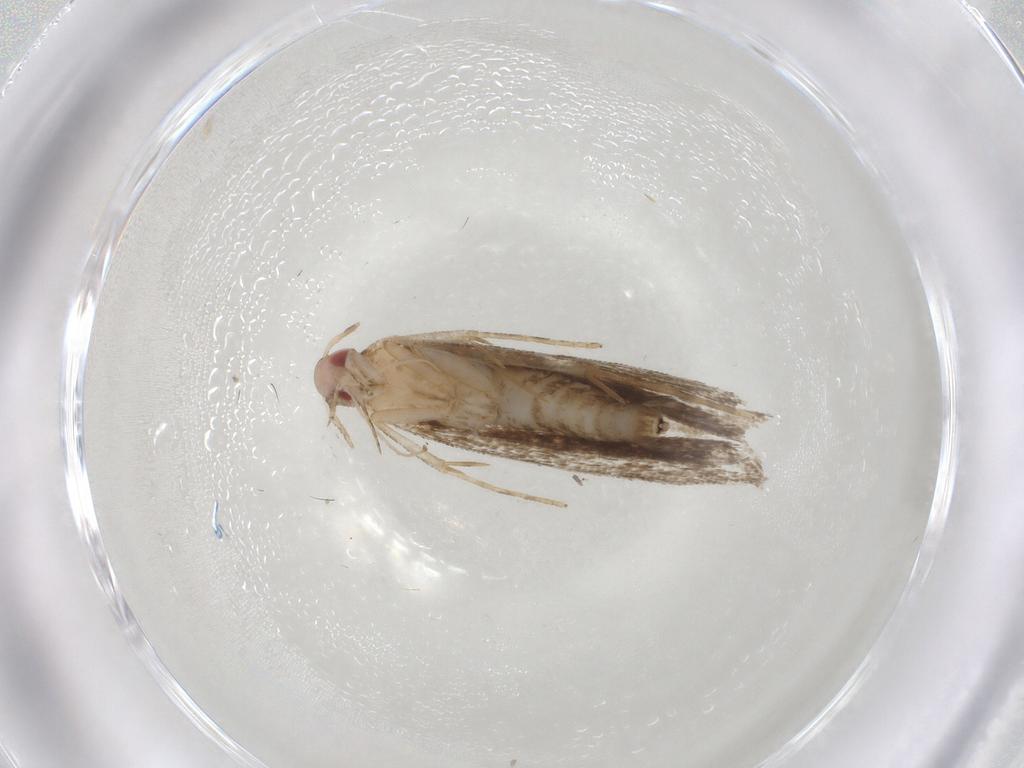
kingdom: Animalia
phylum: Arthropoda
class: Insecta
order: Lepidoptera
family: Gelechiidae
